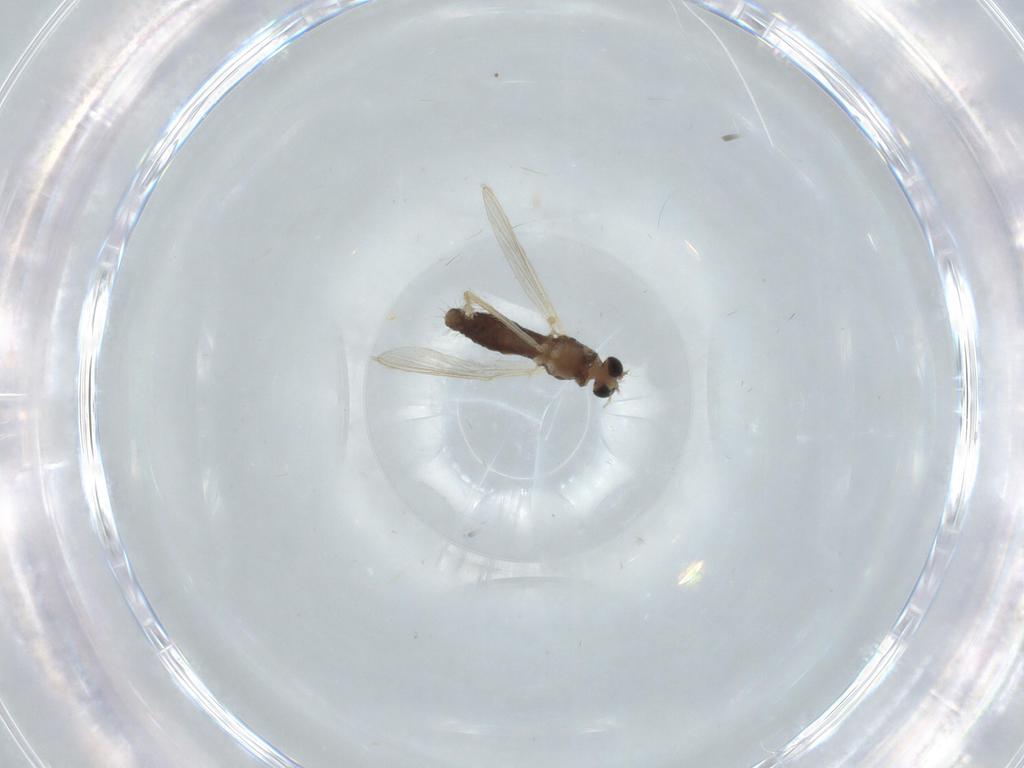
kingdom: Animalia
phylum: Arthropoda
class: Insecta
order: Diptera
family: Chironomidae
